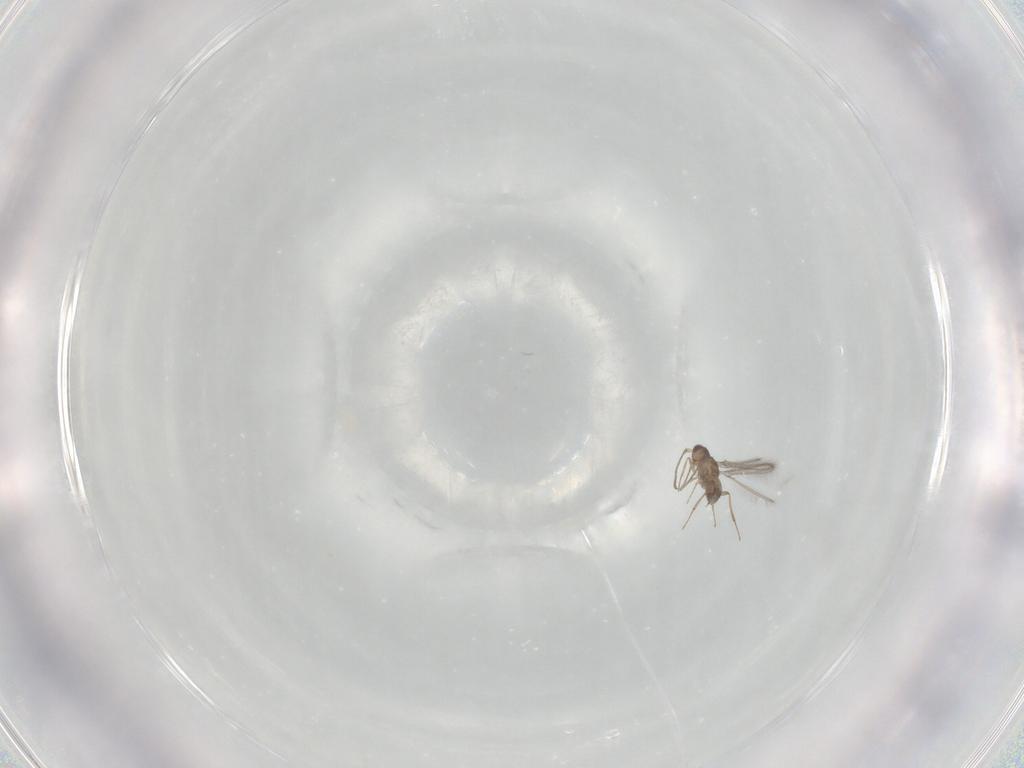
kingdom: Animalia
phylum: Arthropoda
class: Insecta
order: Hymenoptera
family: Mymaridae
